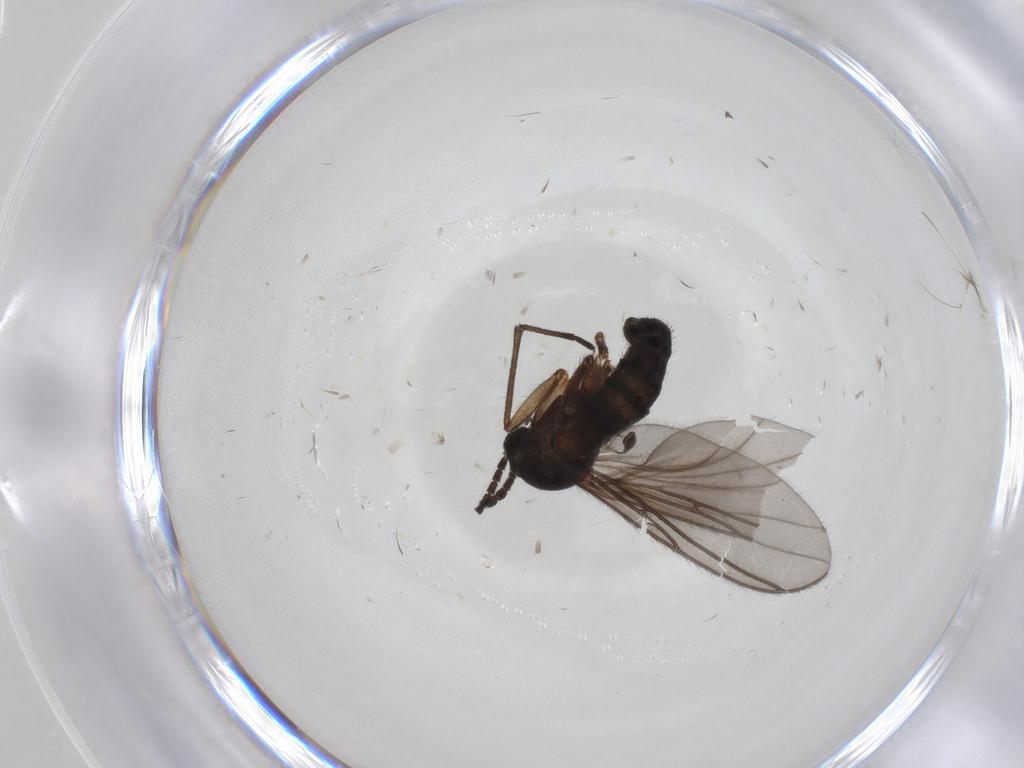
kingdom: Animalia
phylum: Arthropoda
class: Insecta
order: Diptera
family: Sciaridae
